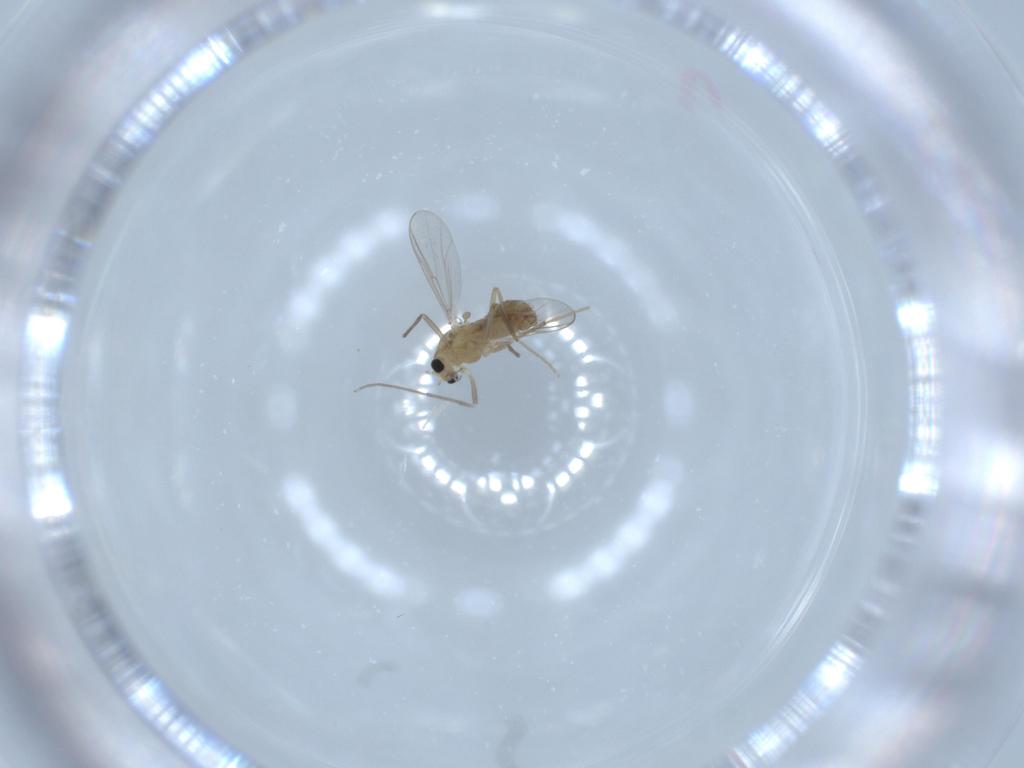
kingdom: Animalia
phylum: Arthropoda
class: Insecta
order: Diptera
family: Chironomidae
